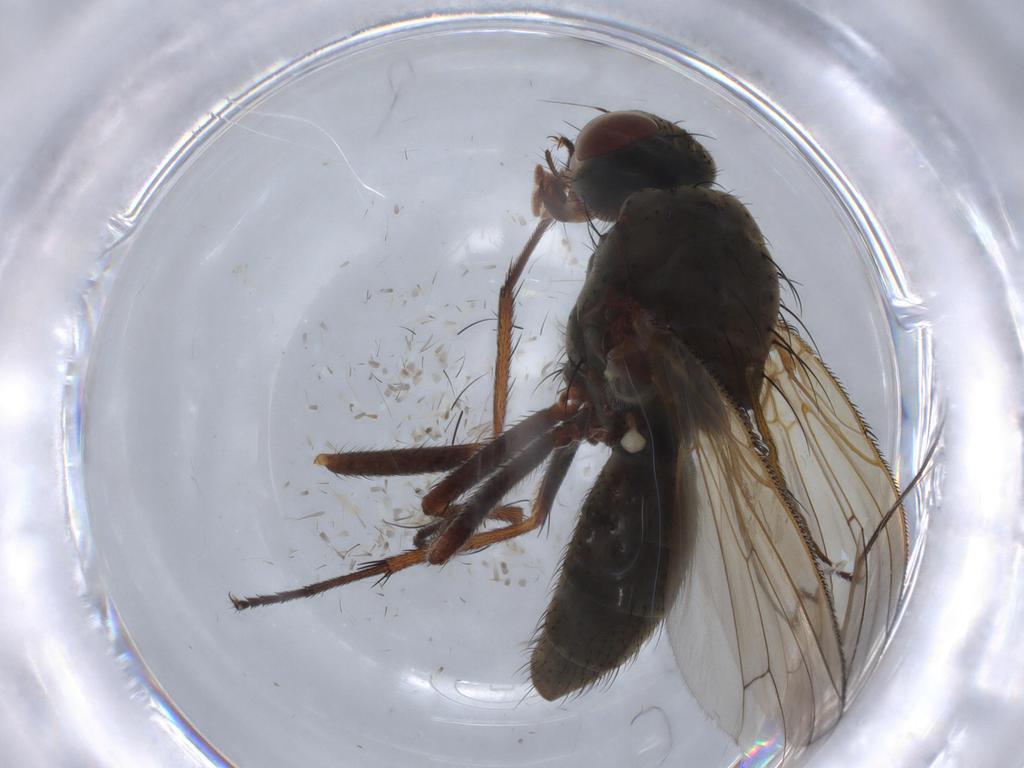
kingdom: Animalia
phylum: Arthropoda
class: Insecta
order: Diptera
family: Anthomyiidae
